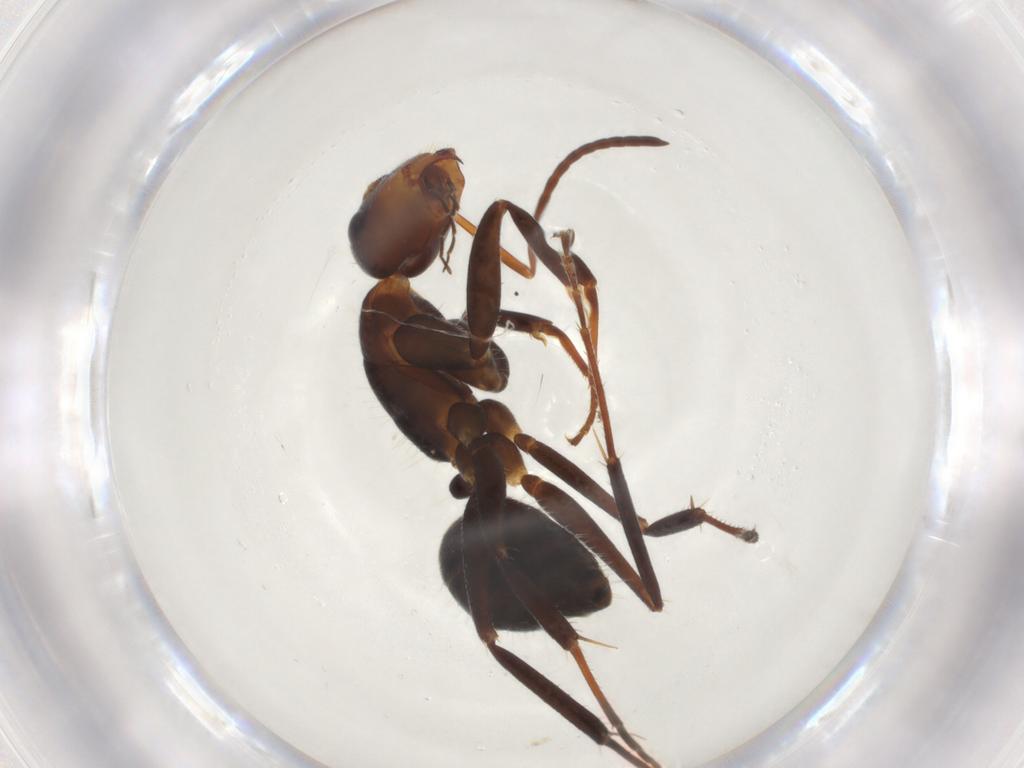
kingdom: Animalia
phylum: Arthropoda
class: Insecta
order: Hymenoptera
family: Formicidae
